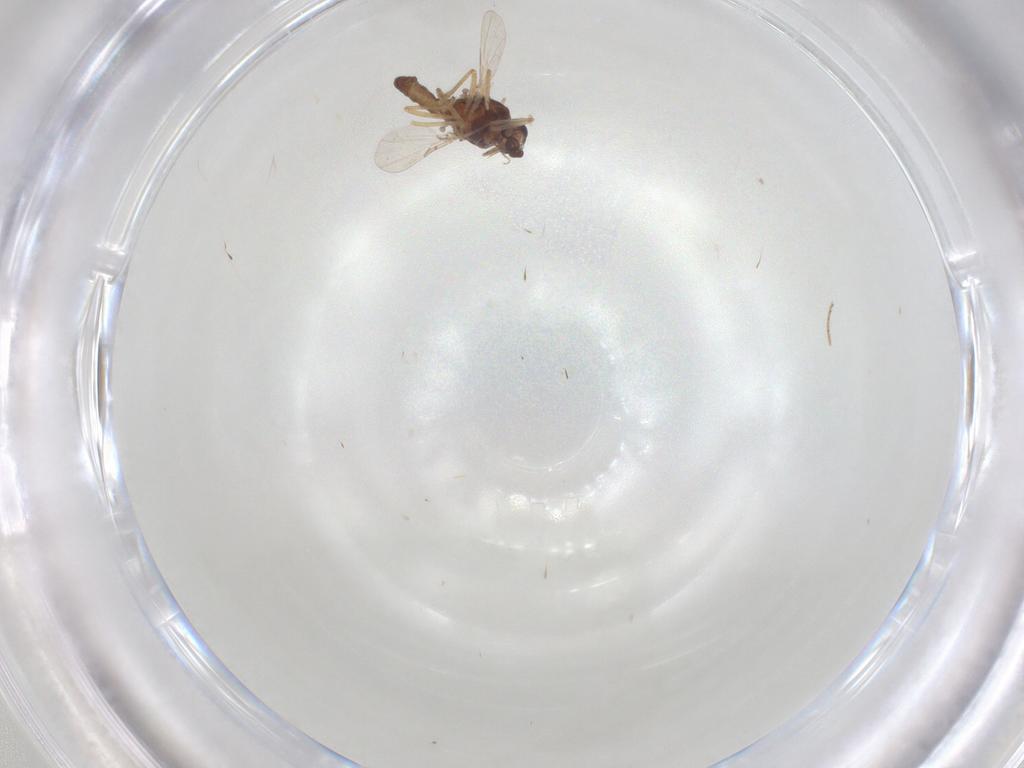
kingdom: Animalia
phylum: Arthropoda
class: Insecta
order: Diptera
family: Ceratopogonidae
